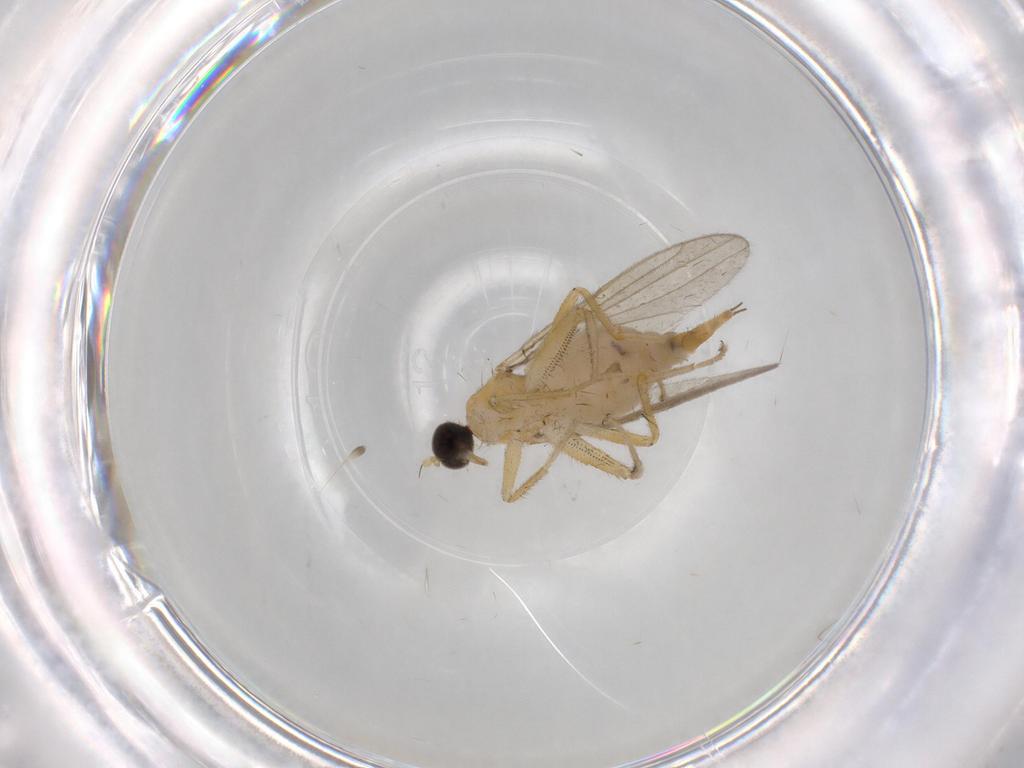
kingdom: Animalia
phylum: Arthropoda
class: Insecta
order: Diptera
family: Hybotidae
